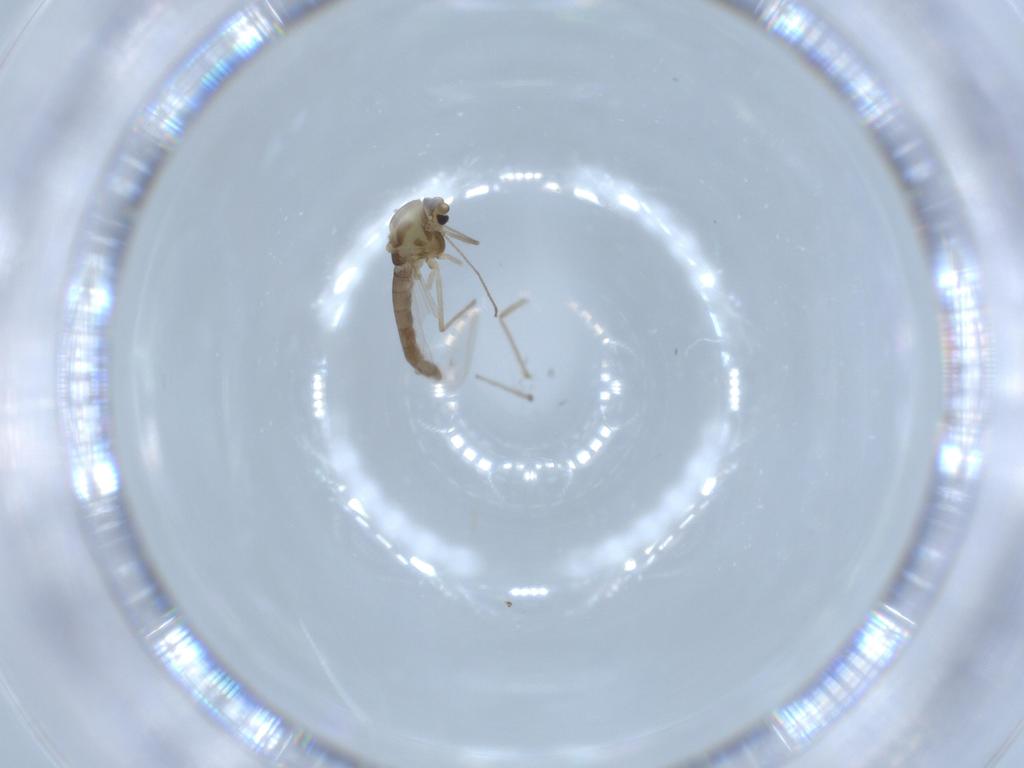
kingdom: Animalia
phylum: Arthropoda
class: Insecta
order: Diptera
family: Chironomidae
